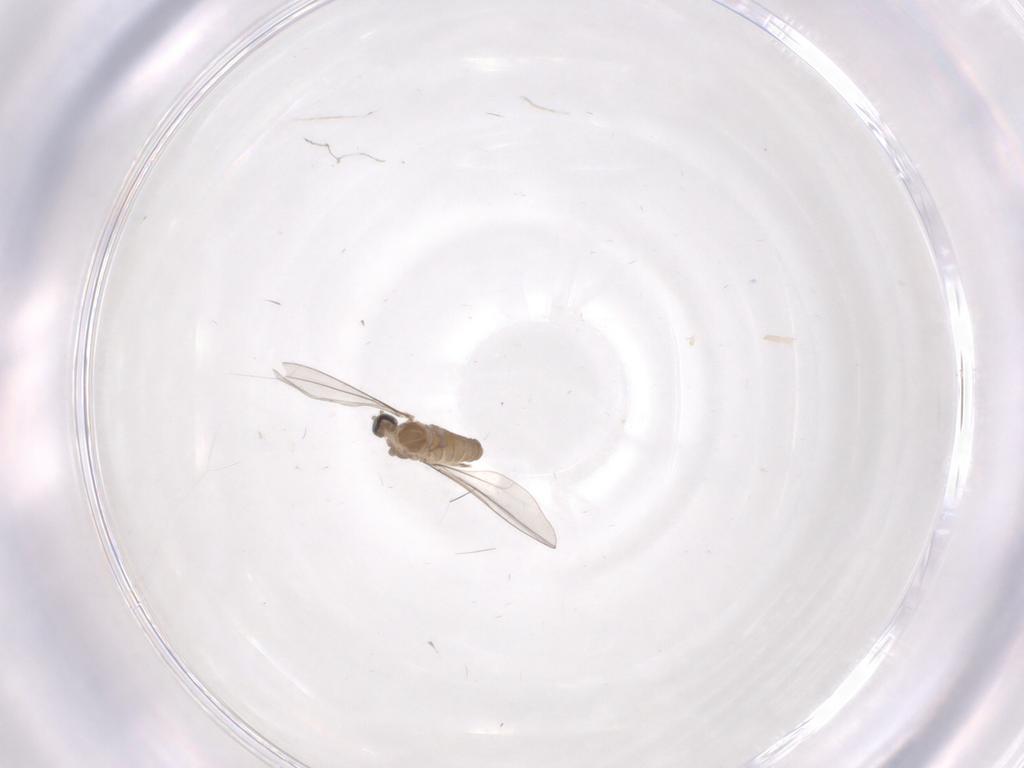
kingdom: Animalia
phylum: Arthropoda
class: Insecta
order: Diptera
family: Cecidomyiidae
